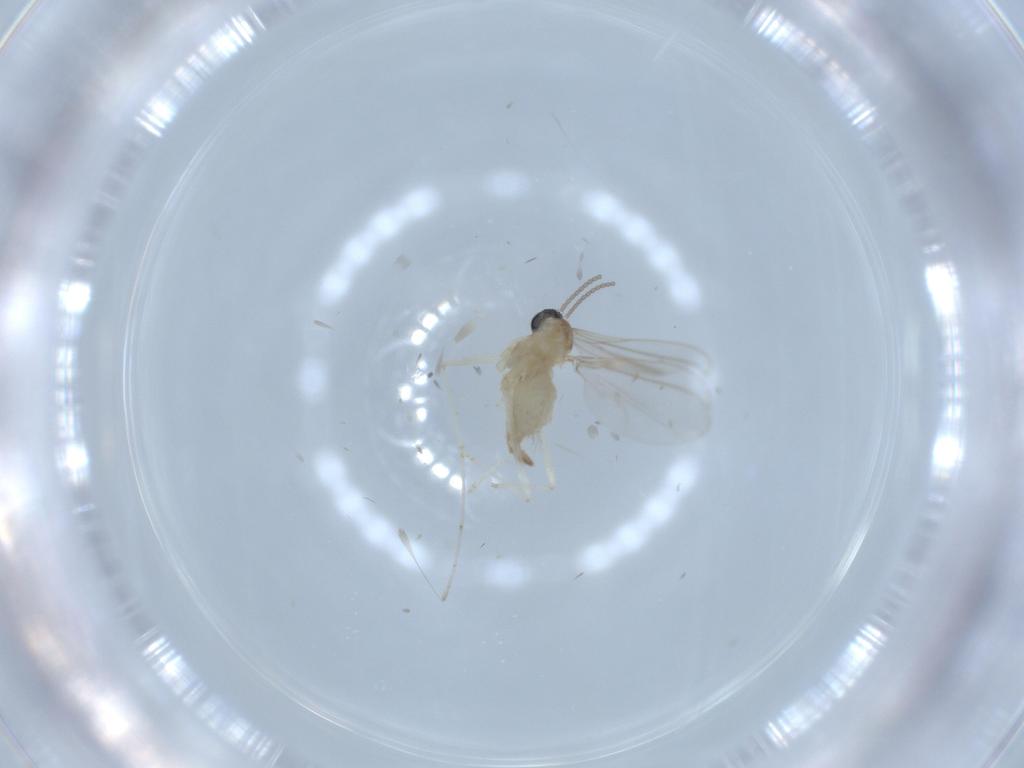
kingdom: Animalia
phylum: Arthropoda
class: Insecta
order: Diptera
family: Cecidomyiidae
